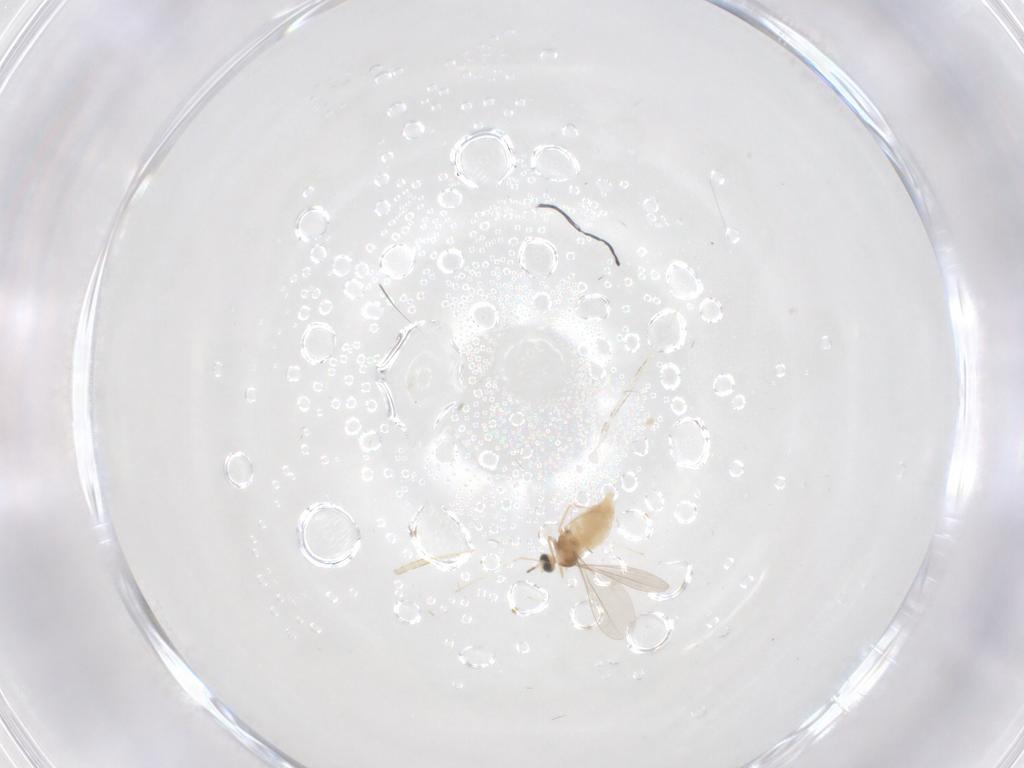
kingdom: Animalia
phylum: Arthropoda
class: Insecta
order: Diptera
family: Cecidomyiidae
